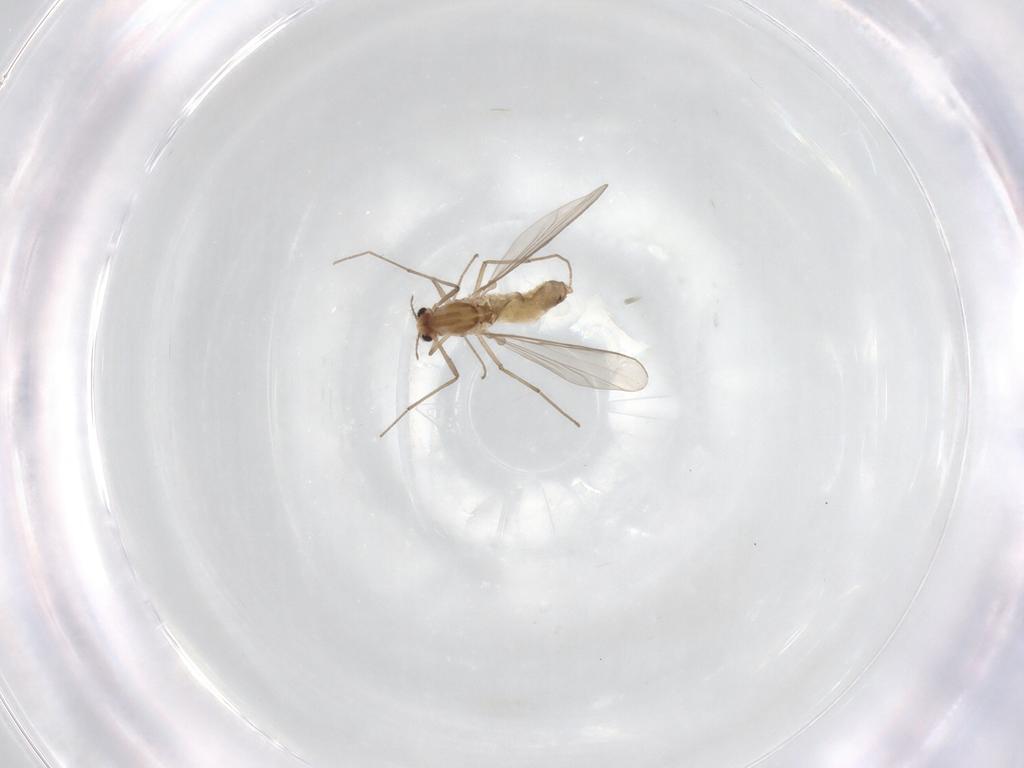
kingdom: Animalia
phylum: Arthropoda
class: Insecta
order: Diptera
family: Chironomidae
